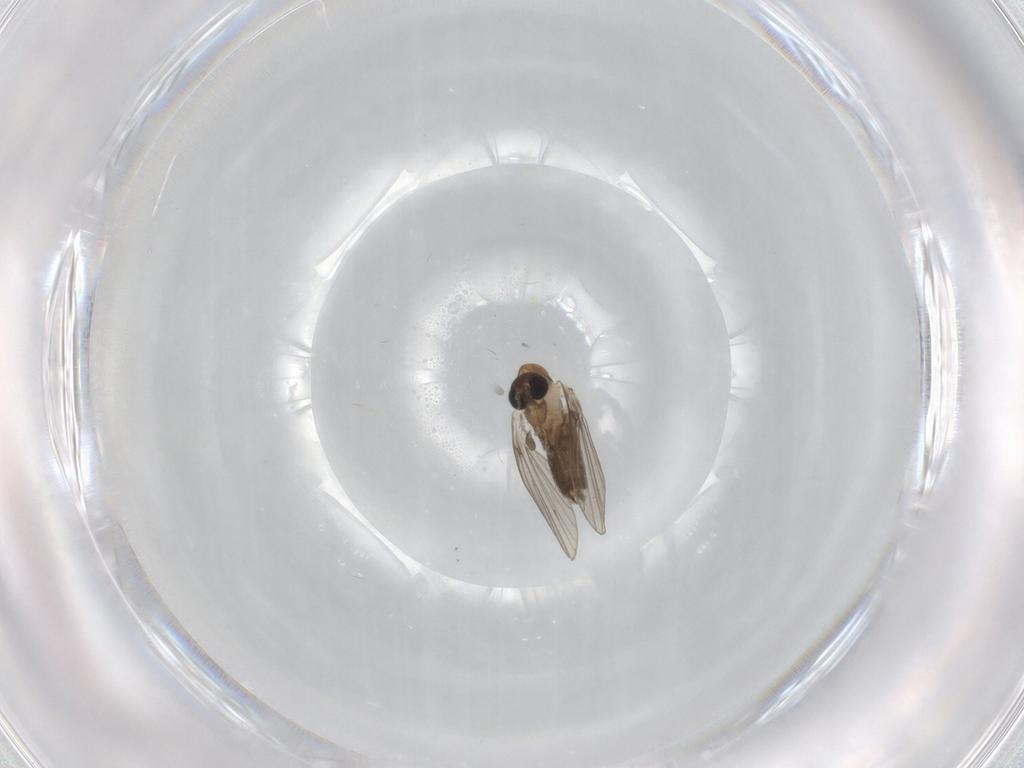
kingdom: Animalia
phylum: Arthropoda
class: Insecta
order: Diptera
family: Psychodidae
